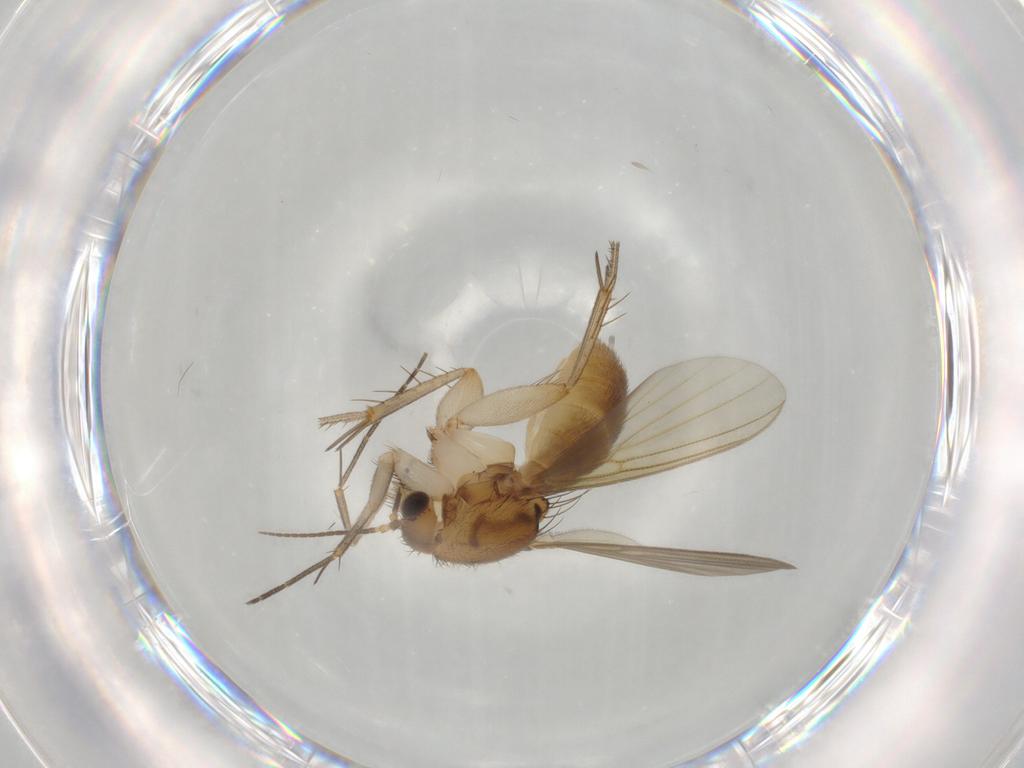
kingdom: Animalia
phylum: Arthropoda
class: Insecta
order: Diptera
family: Mycetophilidae
